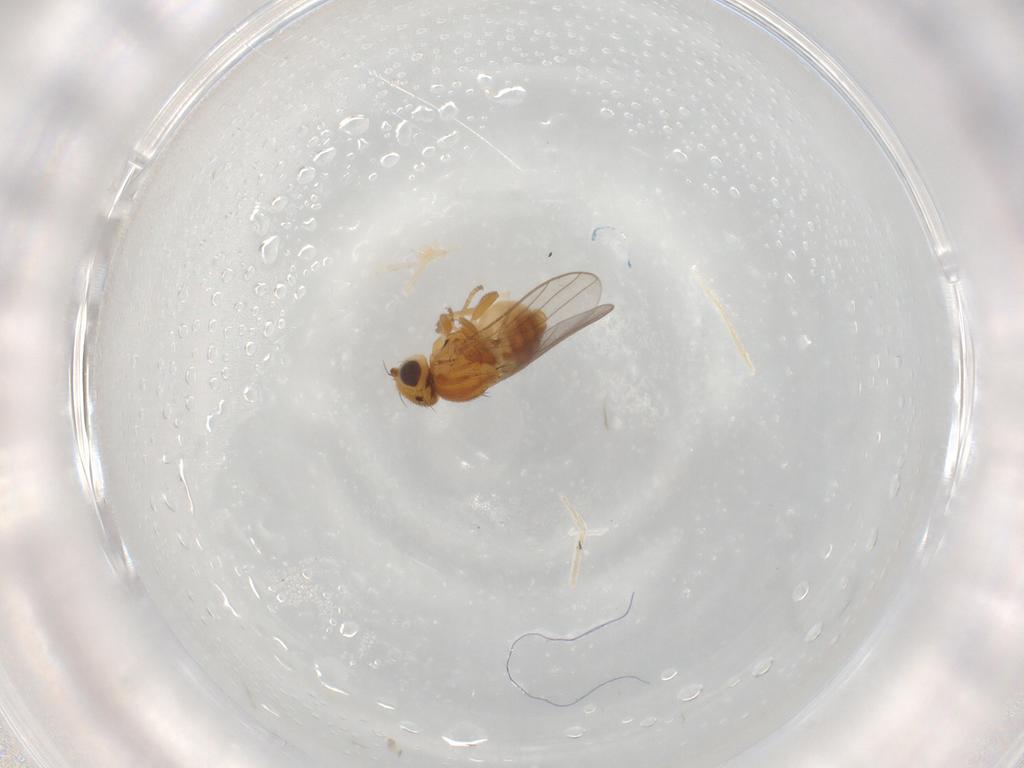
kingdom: Animalia
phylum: Arthropoda
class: Insecta
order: Diptera
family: Chloropidae
